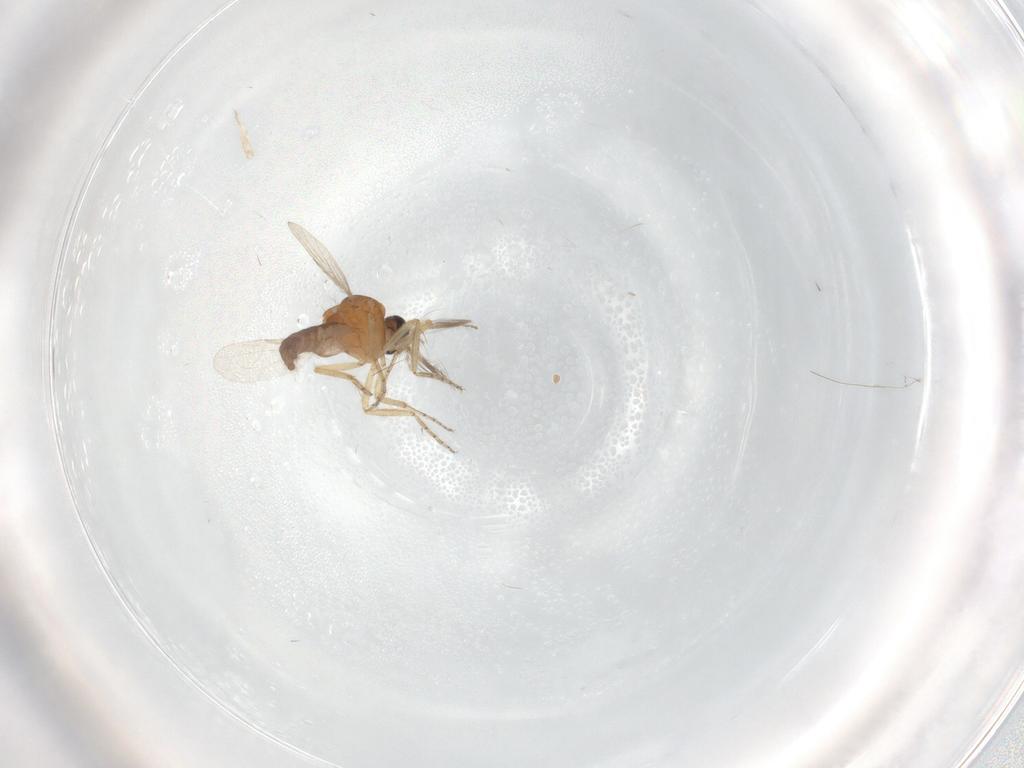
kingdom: Animalia
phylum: Arthropoda
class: Insecta
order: Diptera
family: Ceratopogonidae
